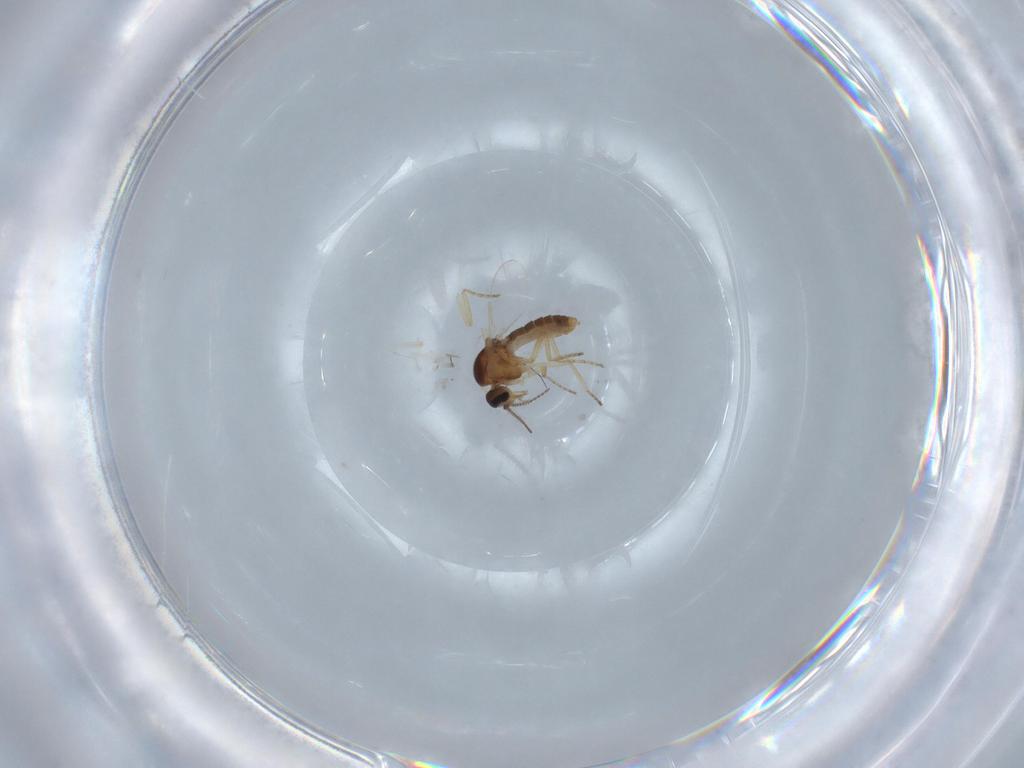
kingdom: Animalia
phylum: Arthropoda
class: Insecta
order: Diptera
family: Ceratopogonidae
